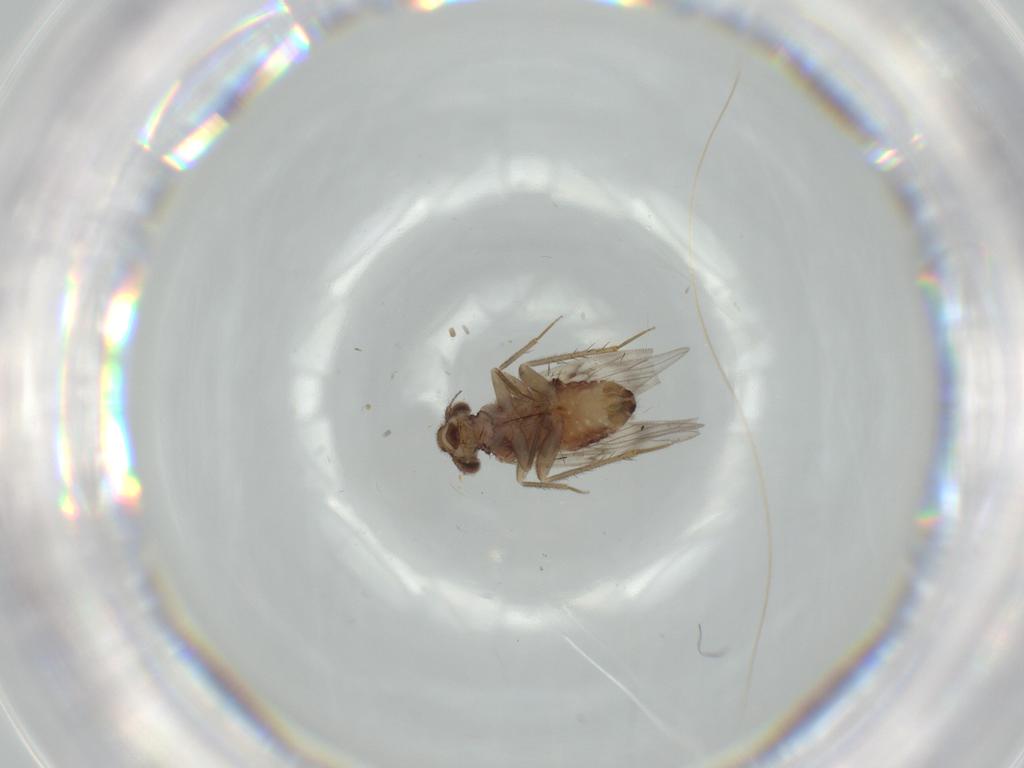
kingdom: Animalia
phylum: Arthropoda
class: Insecta
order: Psocodea
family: Lepidopsocidae
